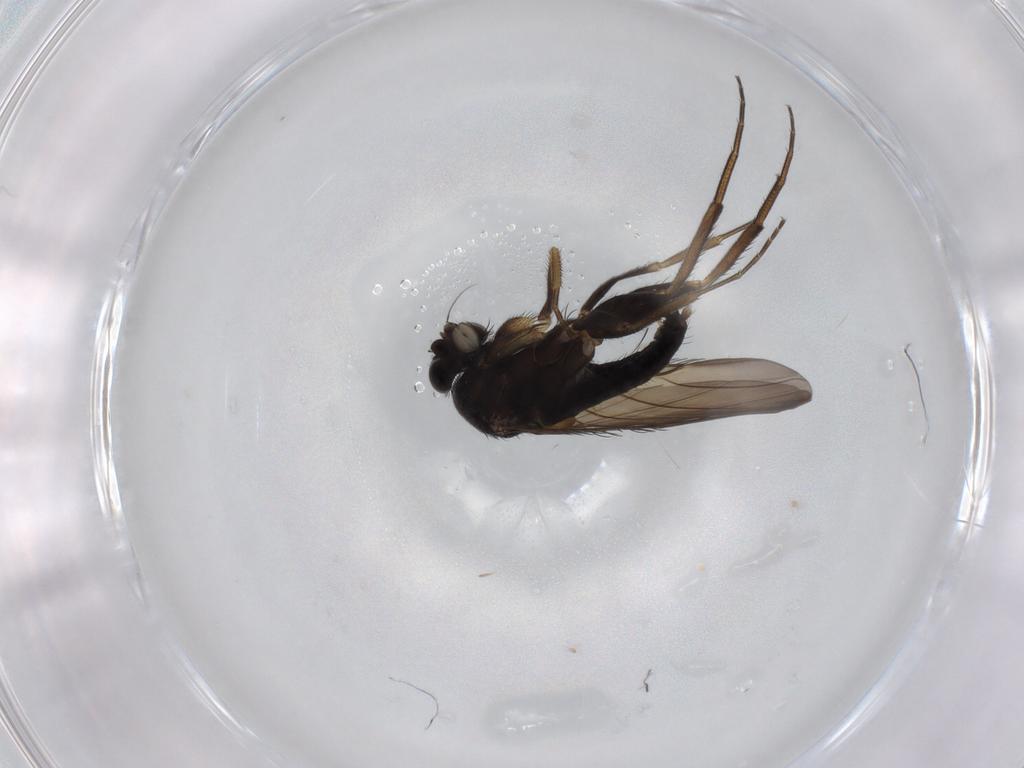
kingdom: Animalia
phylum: Arthropoda
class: Insecta
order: Diptera
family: Phoridae
